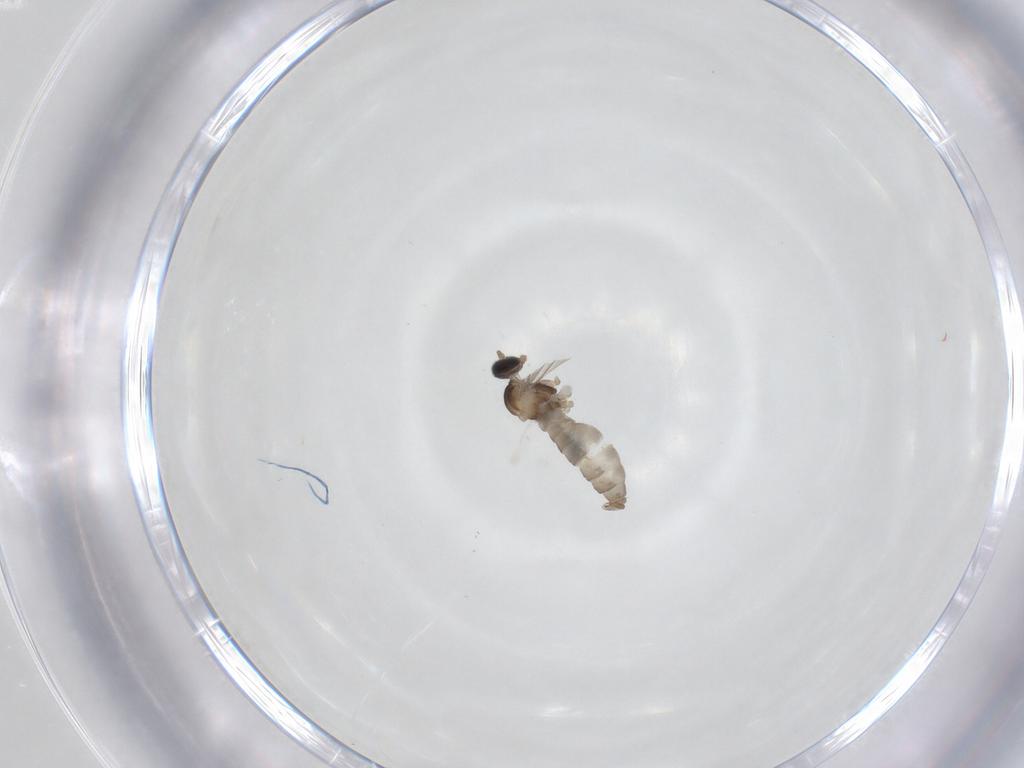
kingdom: Animalia
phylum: Arthropoda
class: Insecta
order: Diptera
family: Cecidomyiidae
